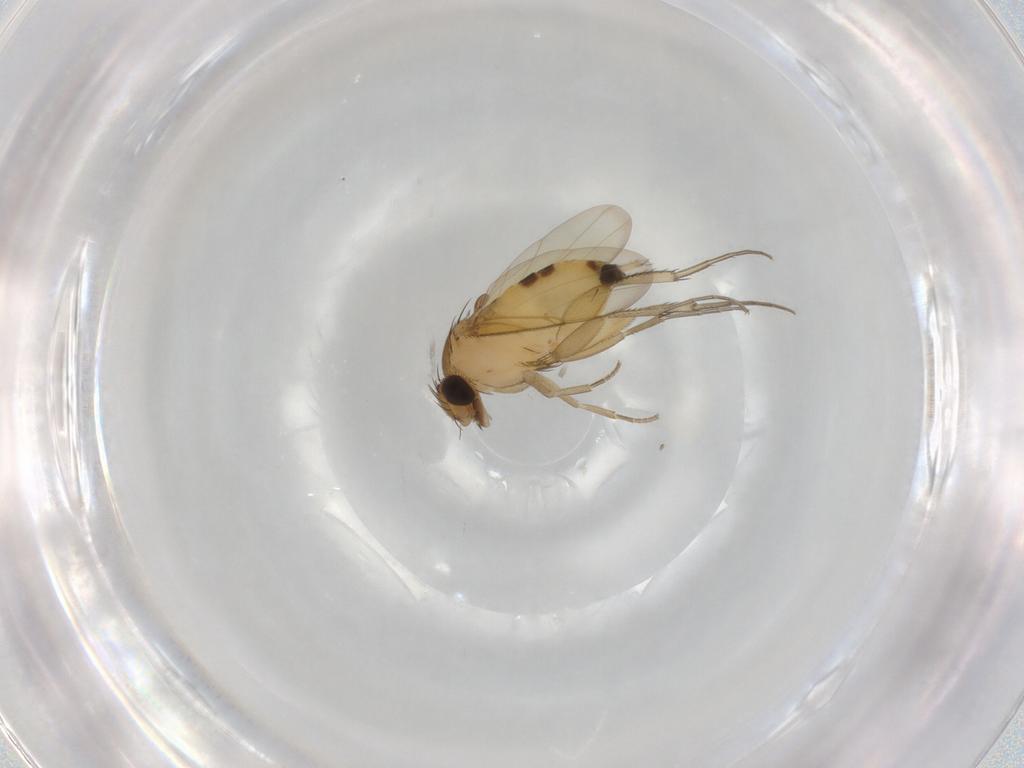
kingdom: Animalia
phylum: Arthropoda
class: Insecta
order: Diptera
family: Phoridae
